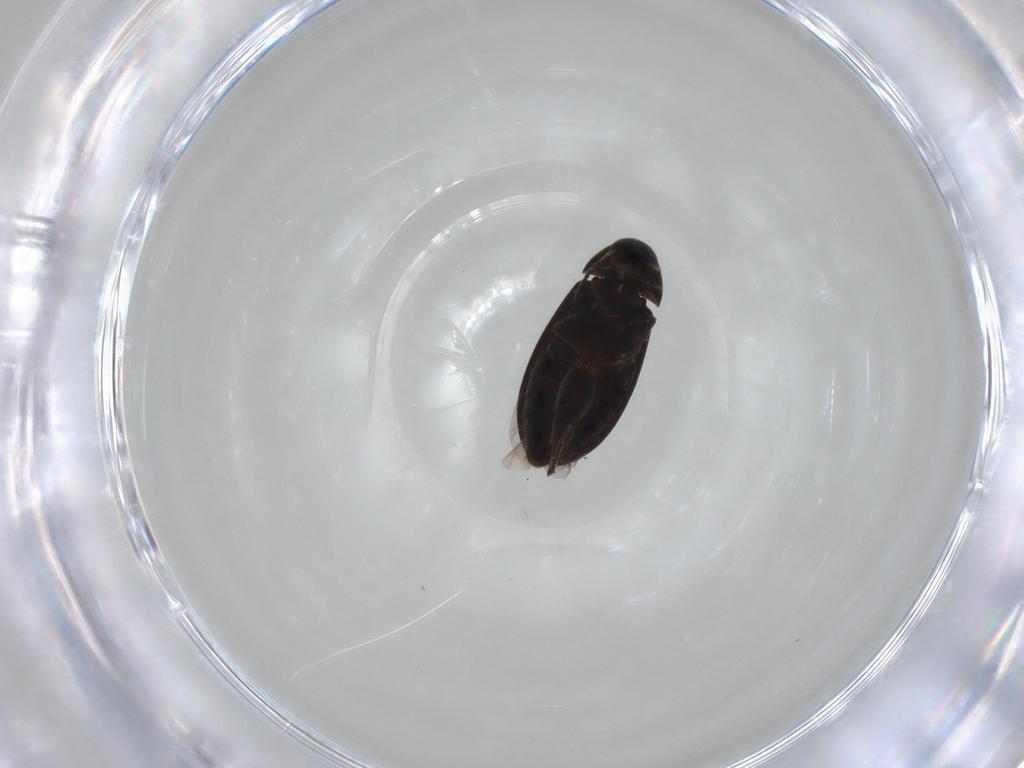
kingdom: Animalia
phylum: Arthropoda
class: Insecta
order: Coleoptera
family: Scraptiidae
